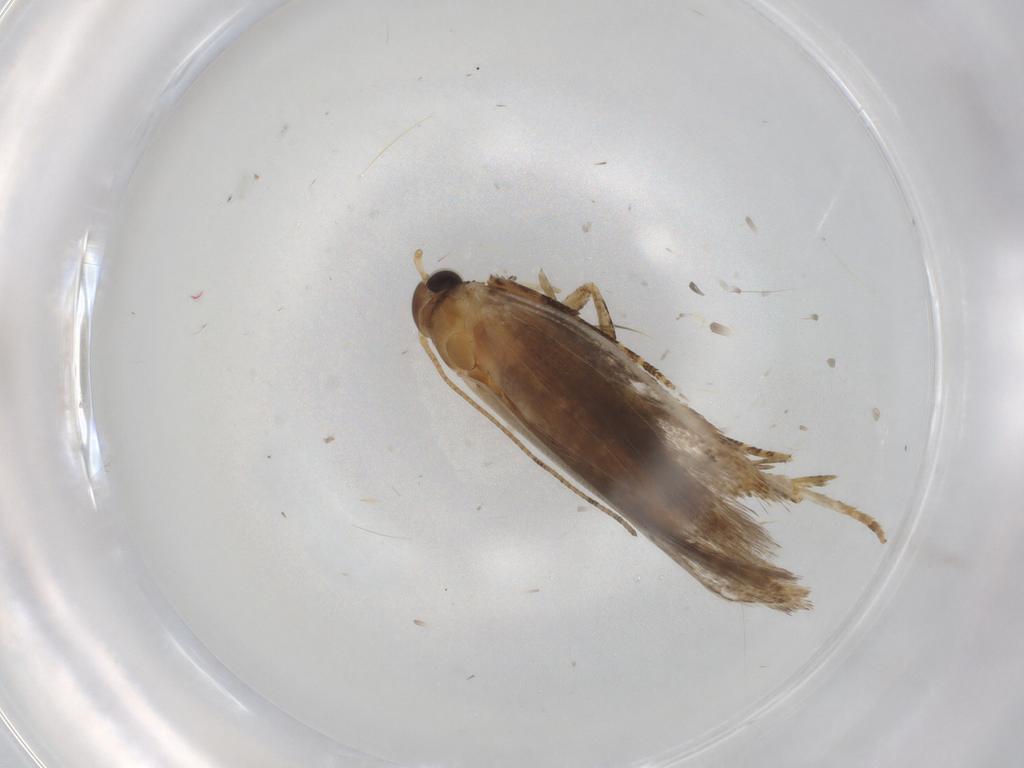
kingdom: Animalia
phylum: Arthropoda
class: Insecta
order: Lepidoptera
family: Gelechiidae
